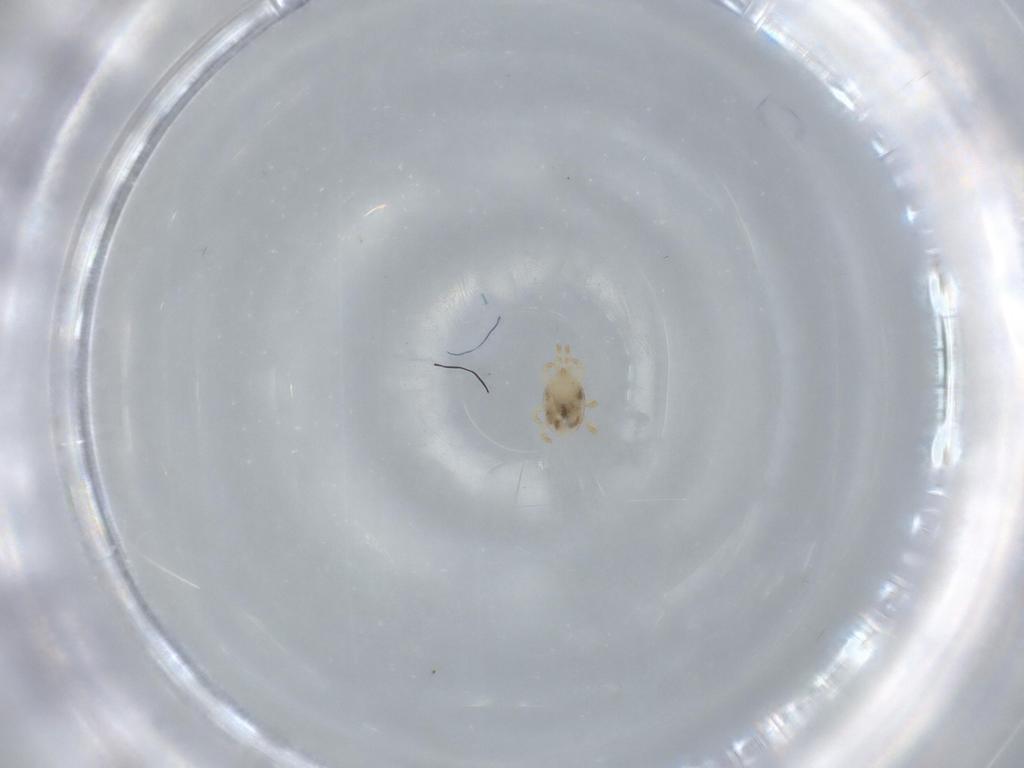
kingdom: Animalia
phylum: Arthropoda
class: Arachnida
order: Mesostigmata
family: Laelapidae
